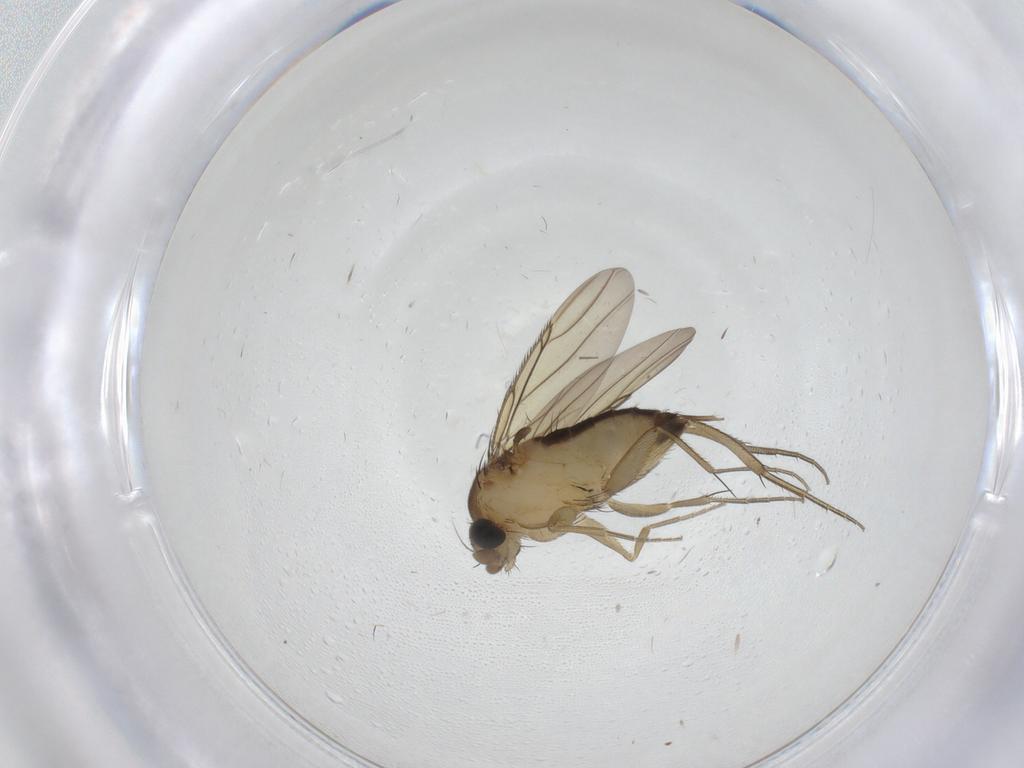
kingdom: Animalia
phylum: Arthropoda
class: Insecta
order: Diptera
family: Phoridae
